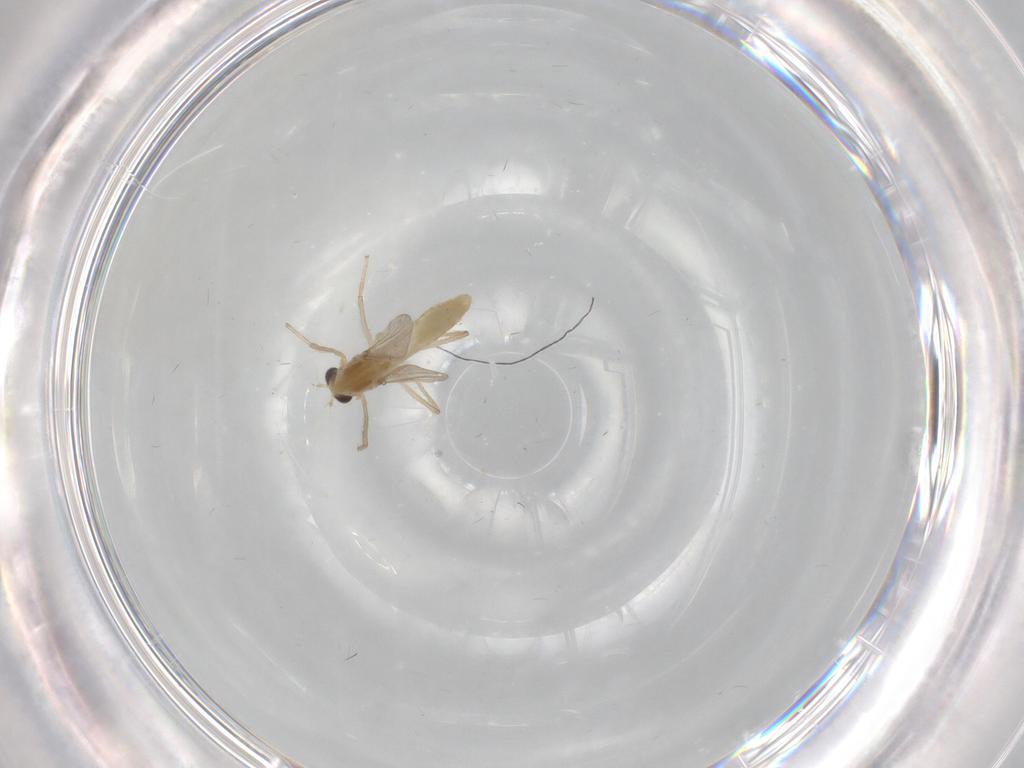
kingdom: Animalia
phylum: Arthropoda
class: Insecta
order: Diptera
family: Chironomidae
